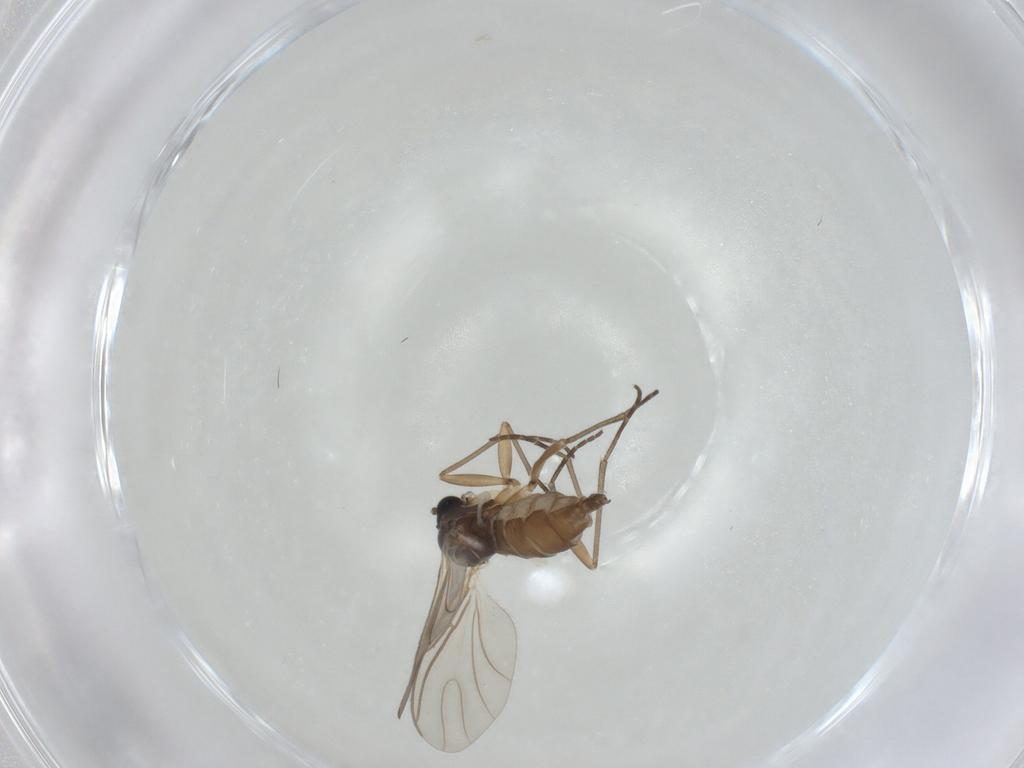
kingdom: Animalia
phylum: Arthropoda
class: Insecta
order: Diptera
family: Sciaridae
